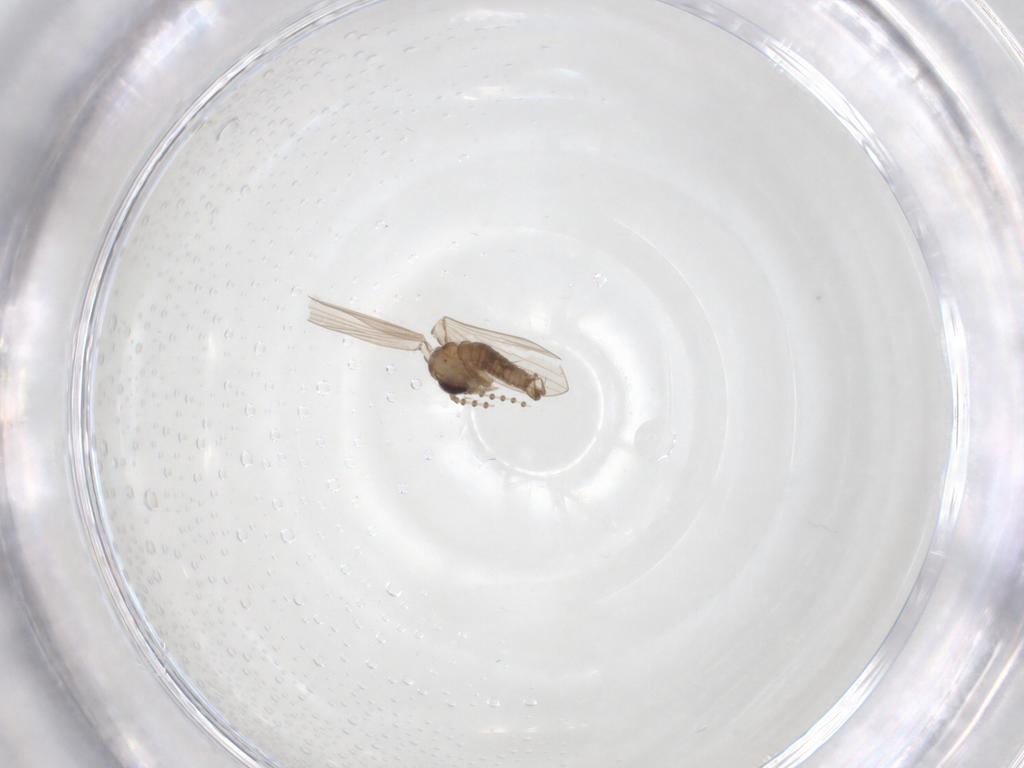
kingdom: Animalia
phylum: Arthropoda
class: Insecta
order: Diptera
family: Psychodidae
